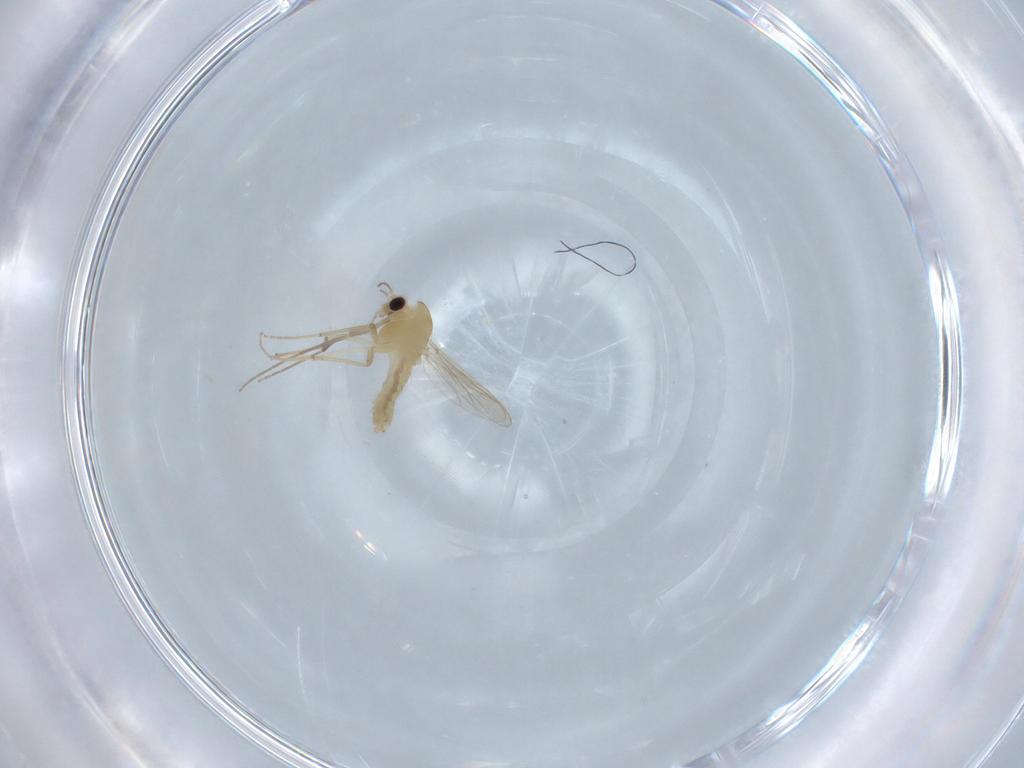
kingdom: Animalia
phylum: Arthropoda
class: Insecta
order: Diptera
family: Chironomidae
